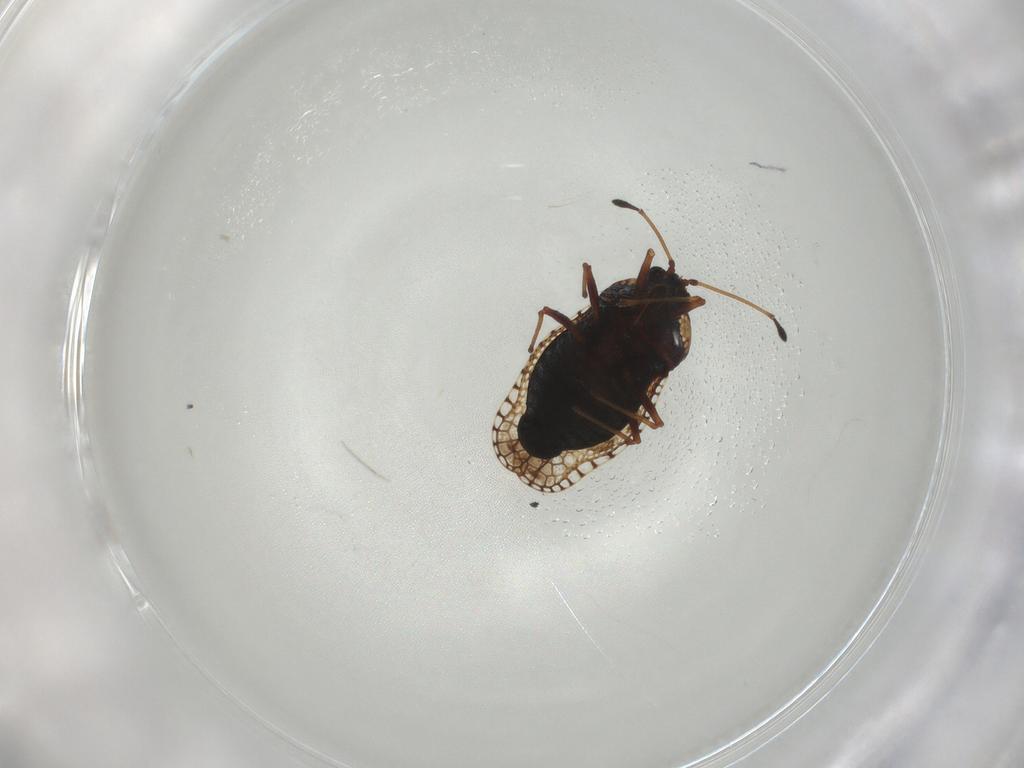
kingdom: Animalia
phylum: Arthropoda
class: Insecta
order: Hemiptera
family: Tingidae
